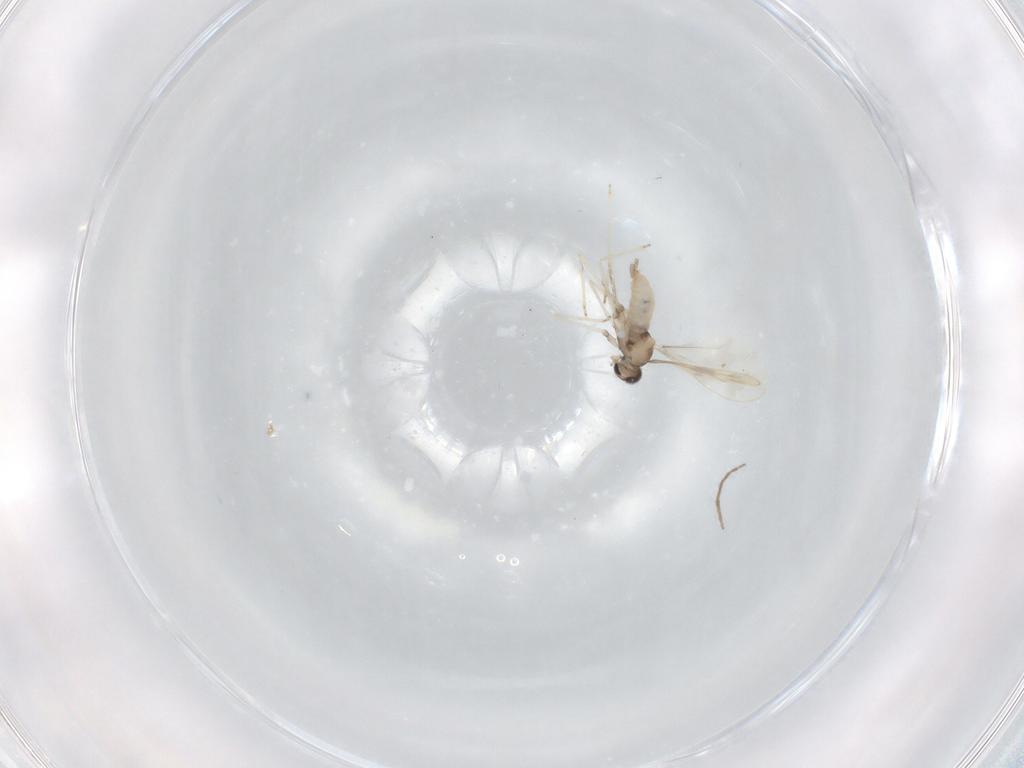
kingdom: Animalia
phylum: Arthropoda
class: Insecta
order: Diptera
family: Cecidomyiidae
